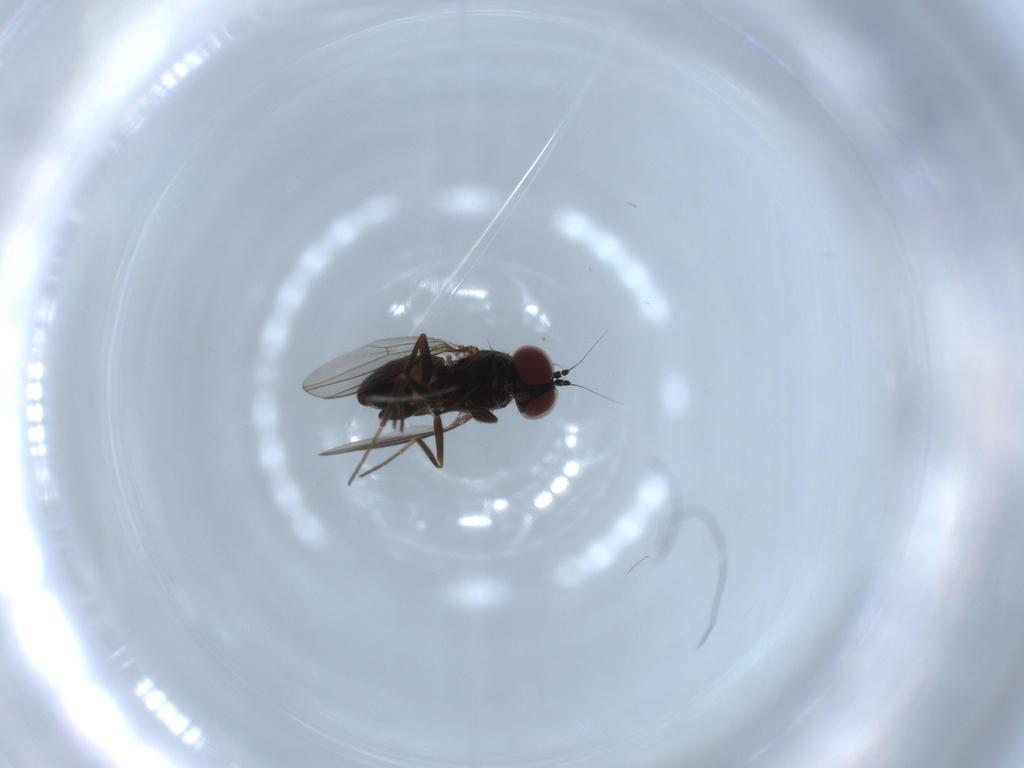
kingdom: Animalia
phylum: Arthropoda
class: Insecta
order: Diptera
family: Dolichopodidae
